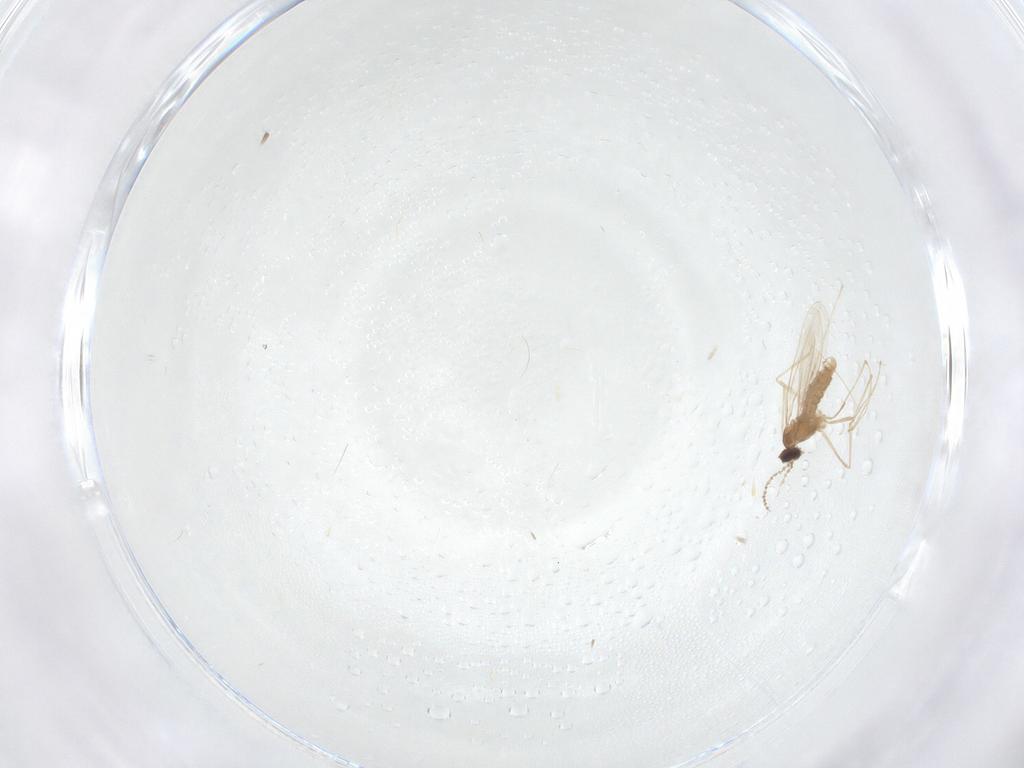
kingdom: Animalia
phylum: Arthropoda
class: Insecta
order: Diptera
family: Cecidomyiidae
